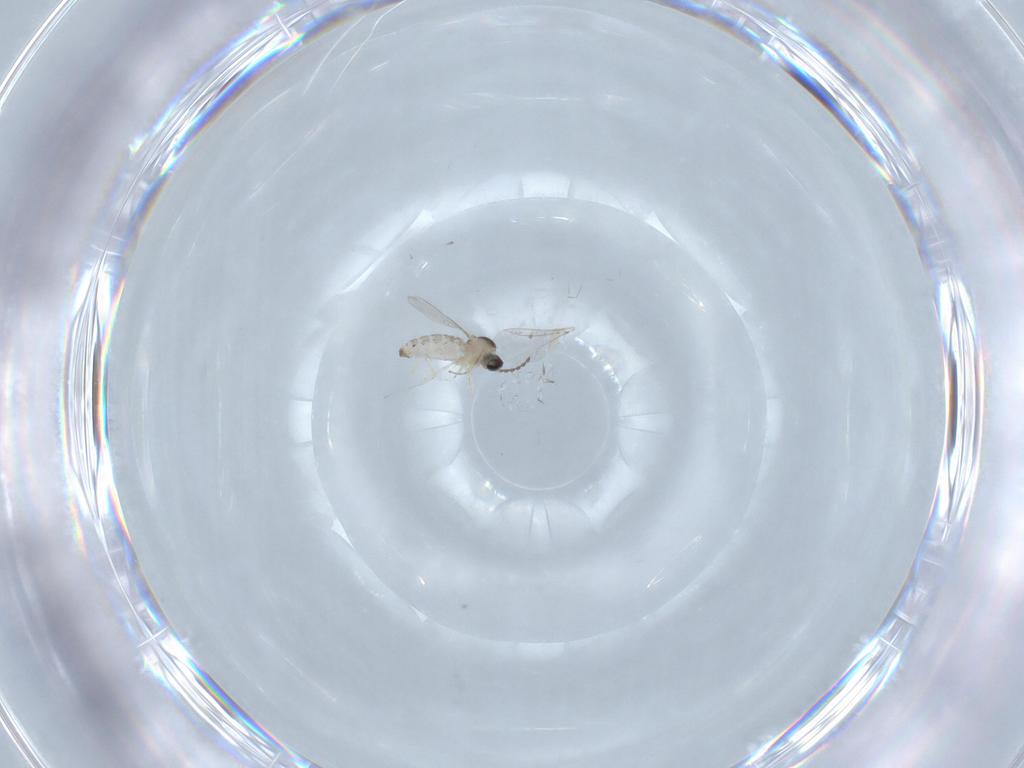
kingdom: Animalia
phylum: Arthropoda
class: Insecta
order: Diptera
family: Cecidomyiidae
